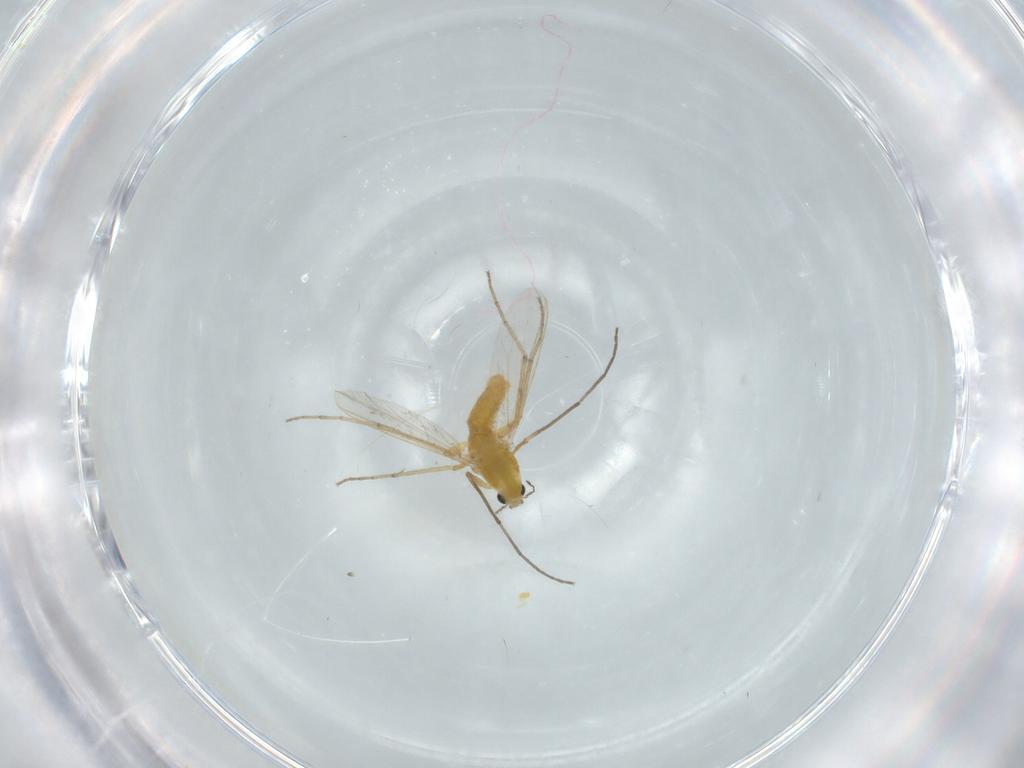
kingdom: Animalia
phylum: Arthropoda
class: Insecta
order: Diptera
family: Chironomidae
